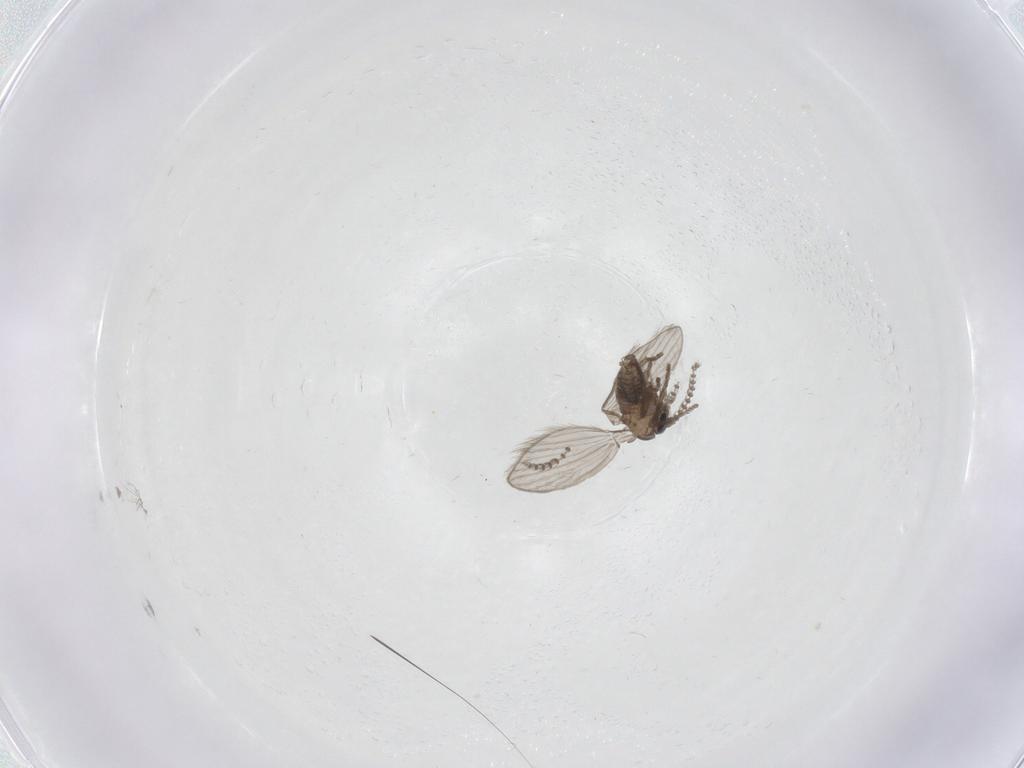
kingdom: Animalia
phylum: Arthropoda
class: Insecta
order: Diptera
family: Psychodidae
